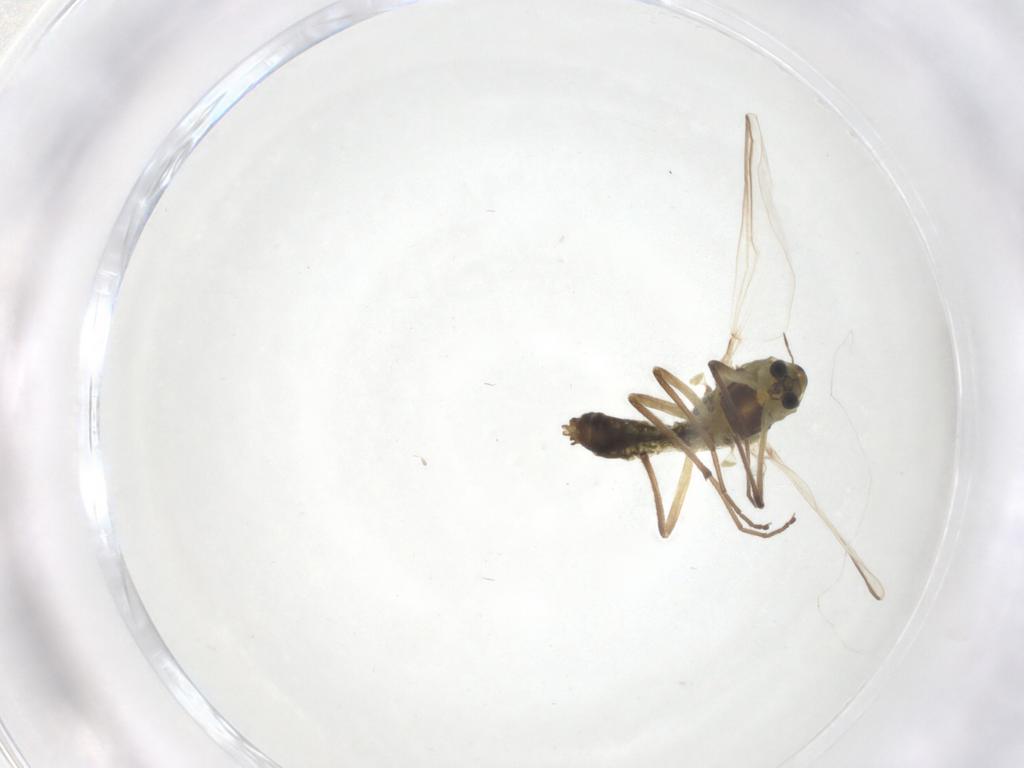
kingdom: Animalia
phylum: Arthropoda
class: Insecta
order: Diptera
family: Chironomidae
